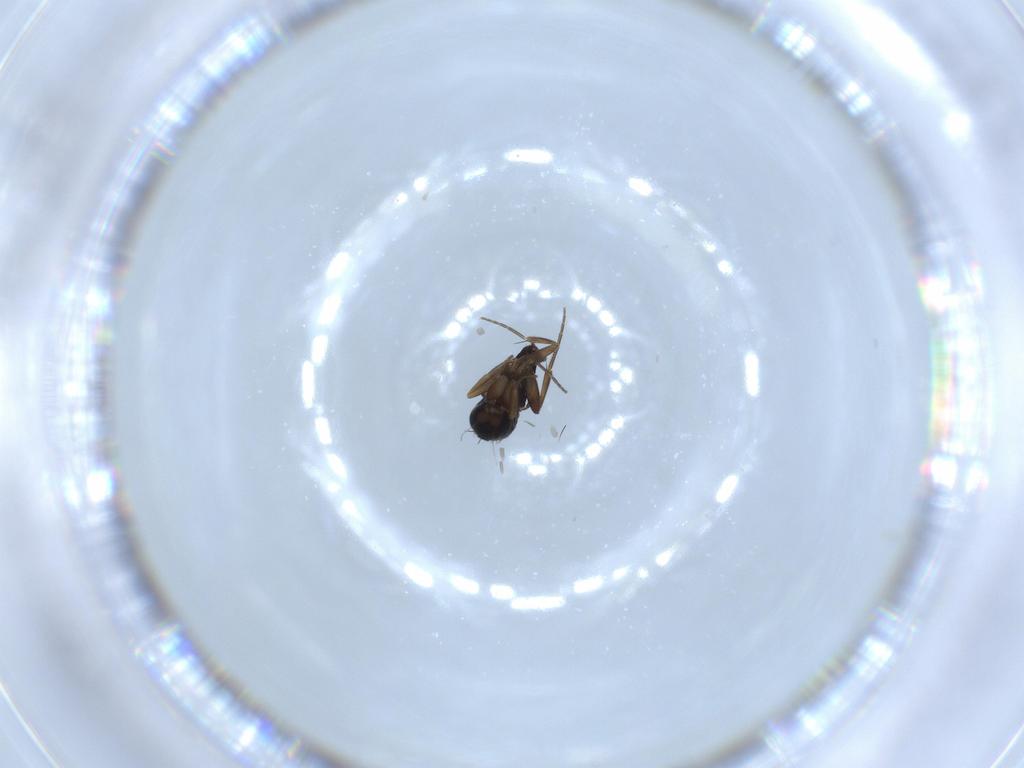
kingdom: Animalia
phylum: Arthropoda
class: Insecta
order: Diptera
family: Phoridae
